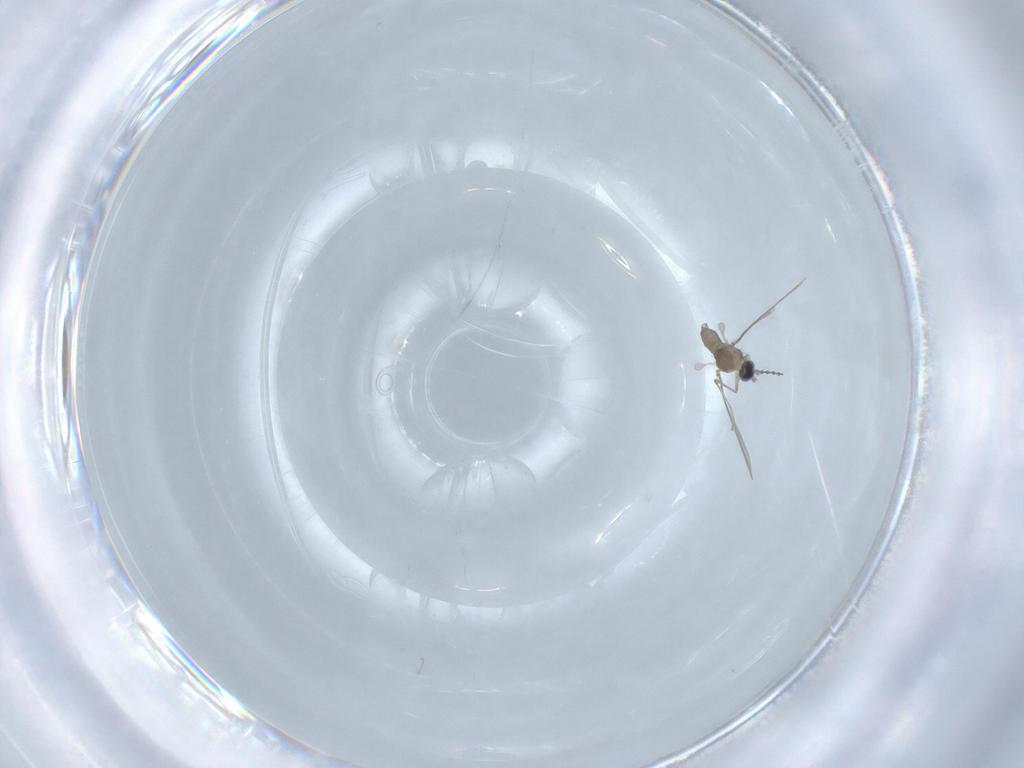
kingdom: Animalia
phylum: Arthropoda
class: Insecta
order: Diptera
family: Cecidomyiidae
